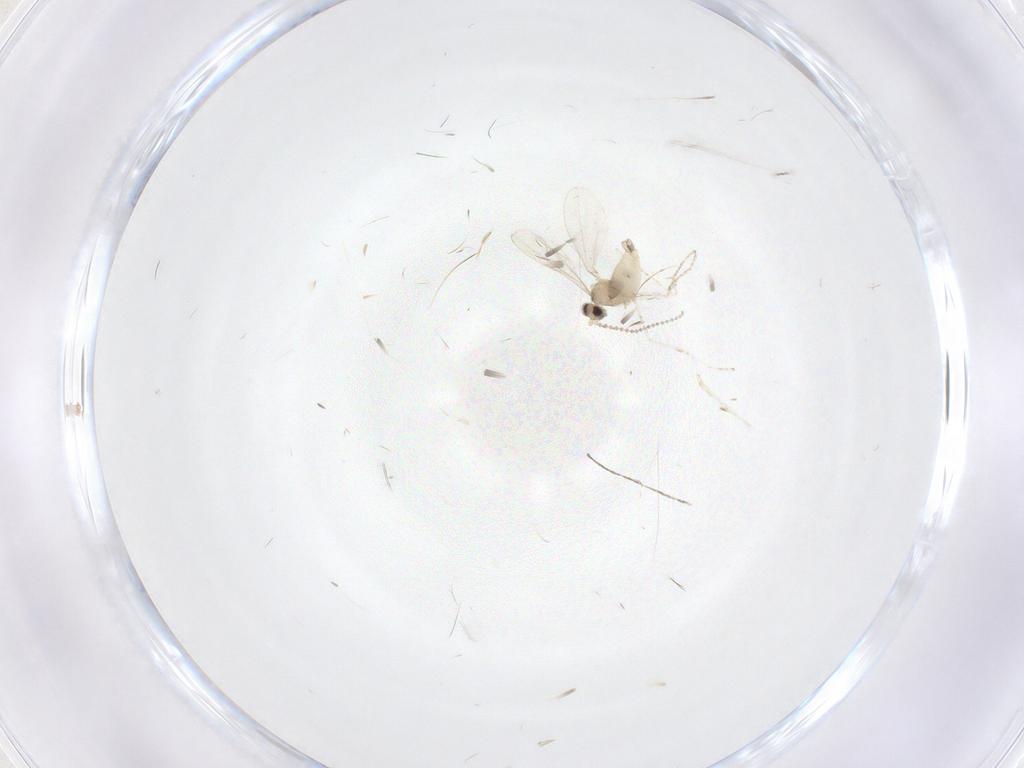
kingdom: Animalia
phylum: Arthropoda
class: Insecta
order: Diptera
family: Cecidomyiidae
